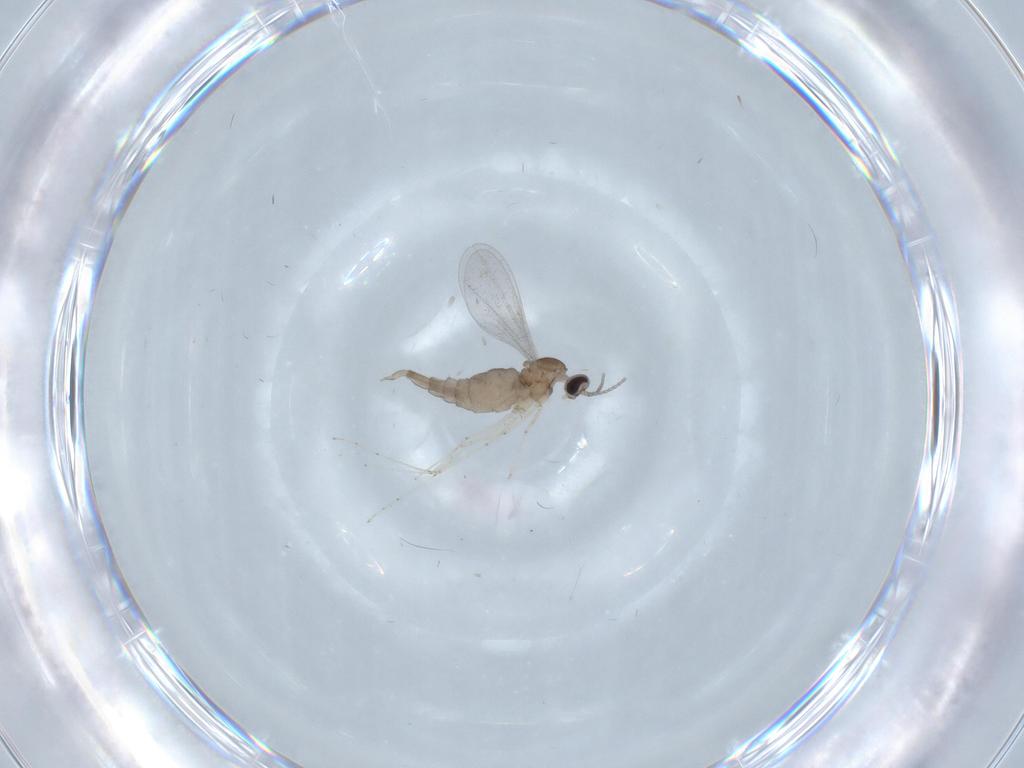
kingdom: Animalia
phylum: Arthropoda
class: Insecta
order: Diptera
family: Cecidomyiidae
